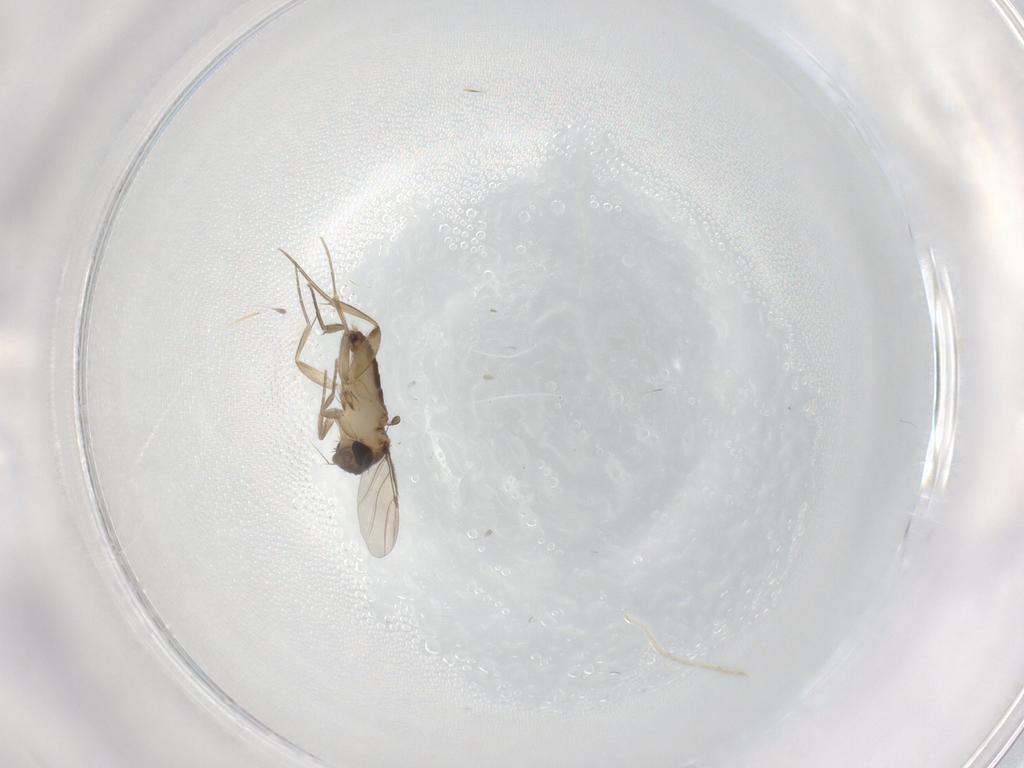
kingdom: Animalia
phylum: Arthropoda
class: Insecta
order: Diptera
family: Phoridae
